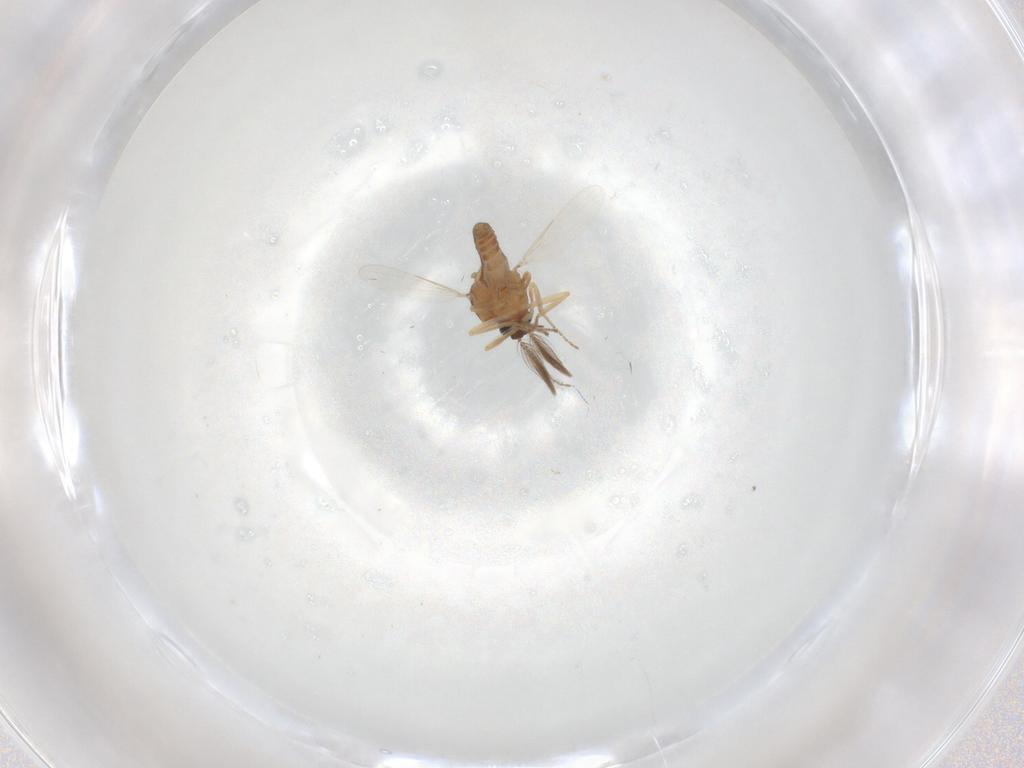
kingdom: Animalia
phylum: Arthropoda
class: Insecta
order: Diptera
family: Ceratopogonidae
